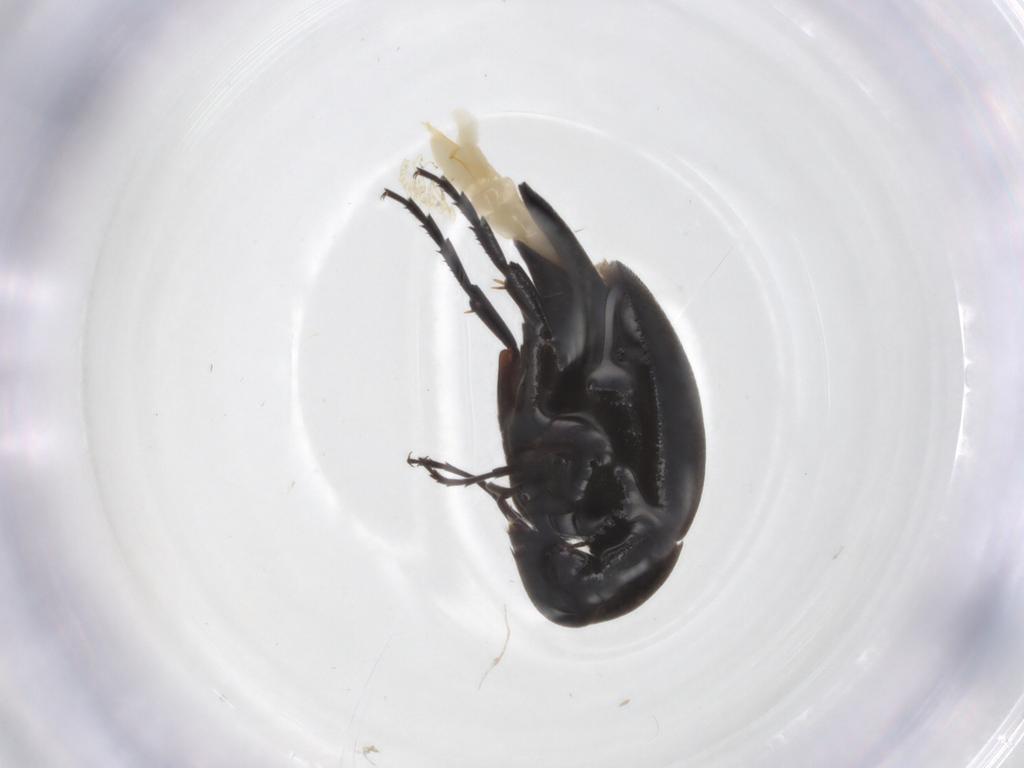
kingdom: Animalia
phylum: Arthropoda
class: Insecta
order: Coleoptera
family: Mordellidae
